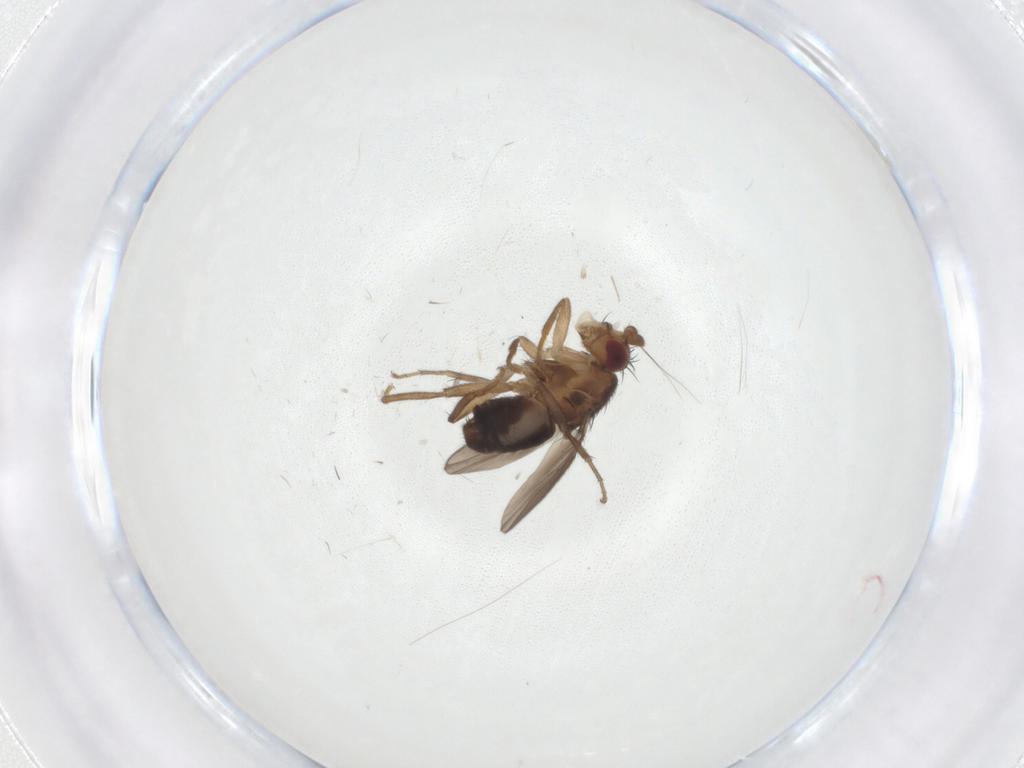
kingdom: Animalia
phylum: Arthropoda
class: Insecta
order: Diptera
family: Sphaeroceridae
